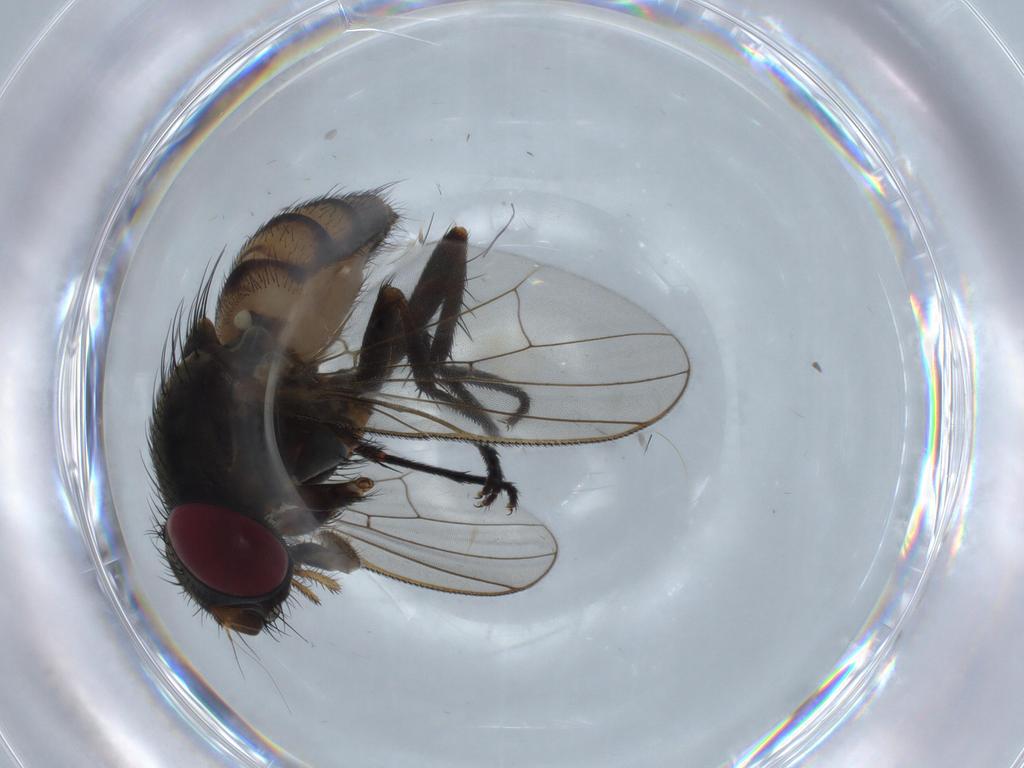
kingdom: Animalia
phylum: Arthropoda
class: Insecta
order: Diptera
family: Fannia
